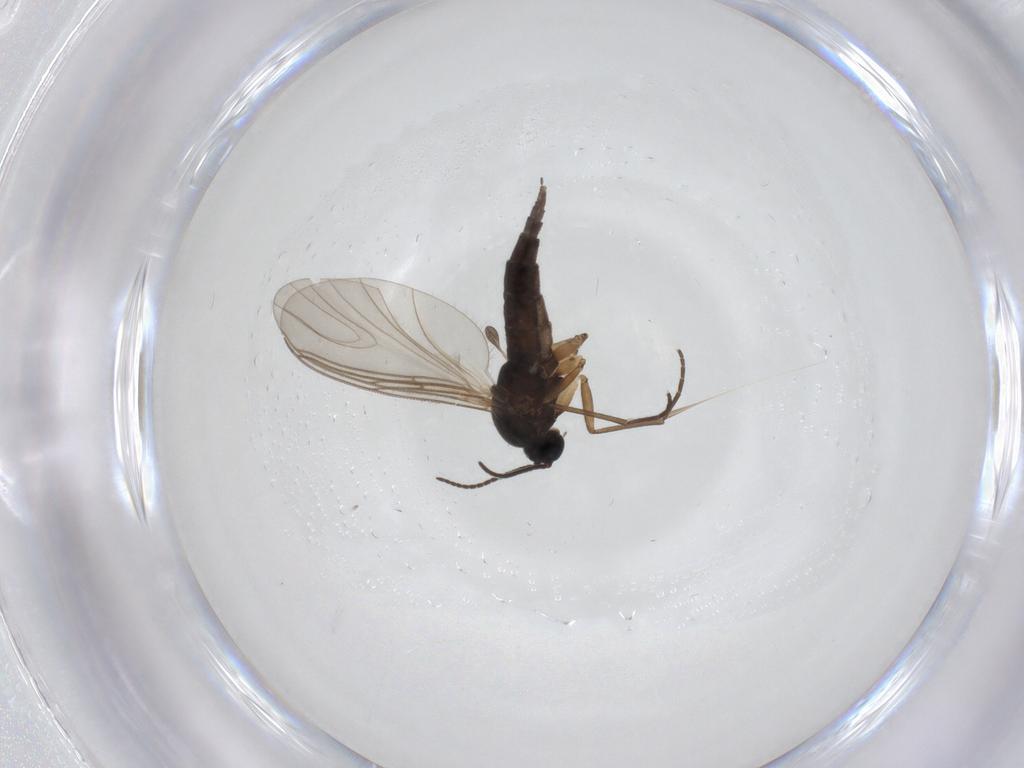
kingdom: Animalia
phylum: Arthropoda
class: Insecta
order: Diptera
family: Sciaridae
